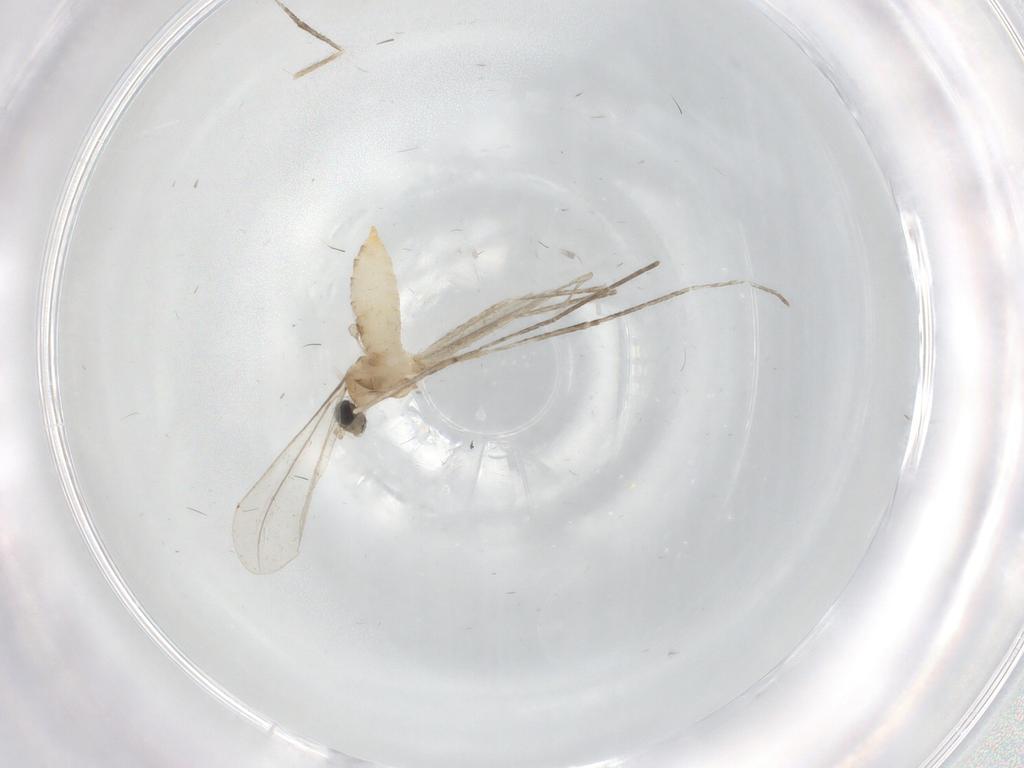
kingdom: Animalia
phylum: Arthropoda
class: Insecta
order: Diptera
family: Cecidomyiidae
